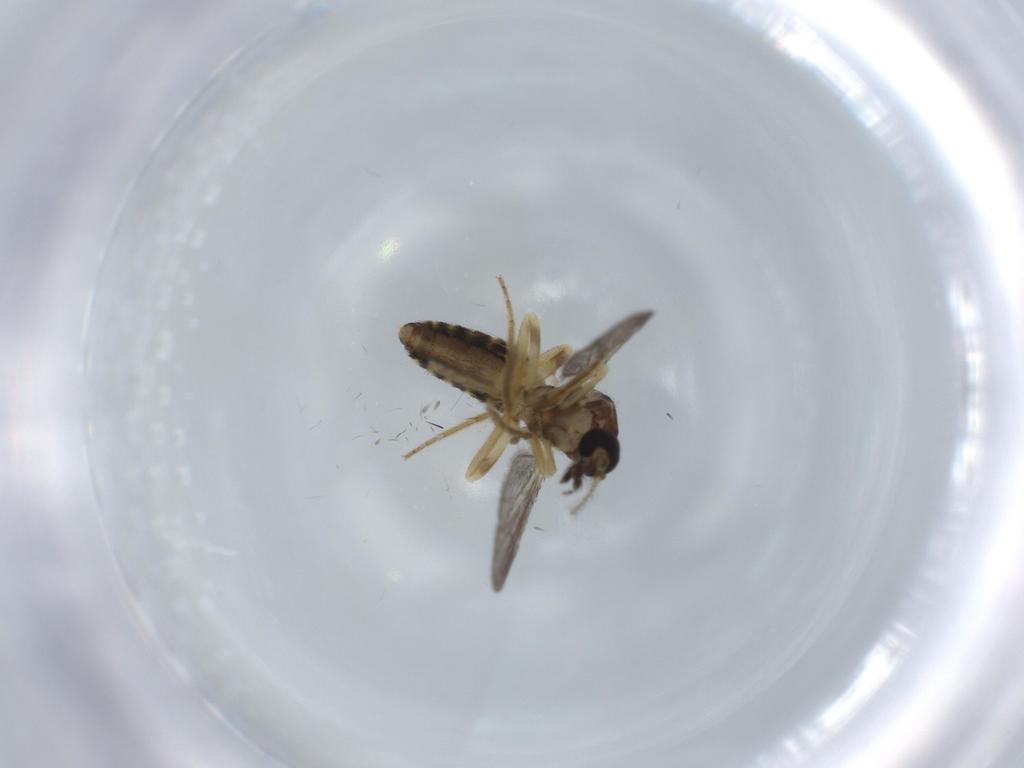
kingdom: Animalia
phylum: Arthropoda
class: Insecta
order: Diptera
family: Ceratopogonidae
